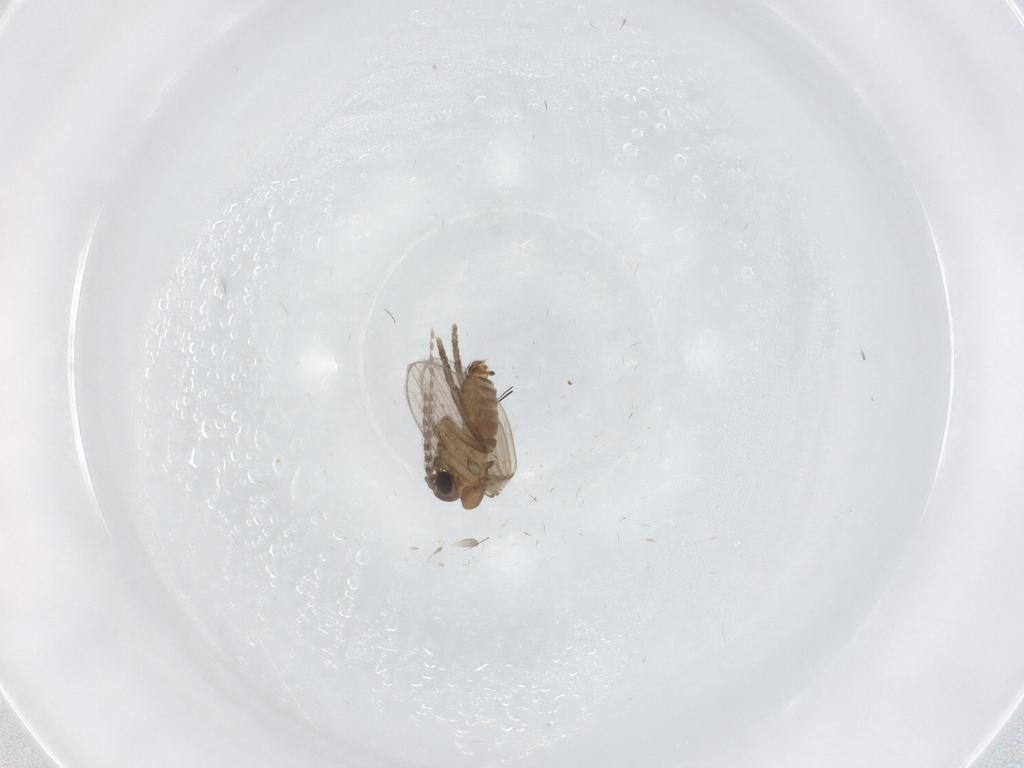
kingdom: Animalia
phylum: Arthropoda
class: Insecta
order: Diptera
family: Psychodidae
